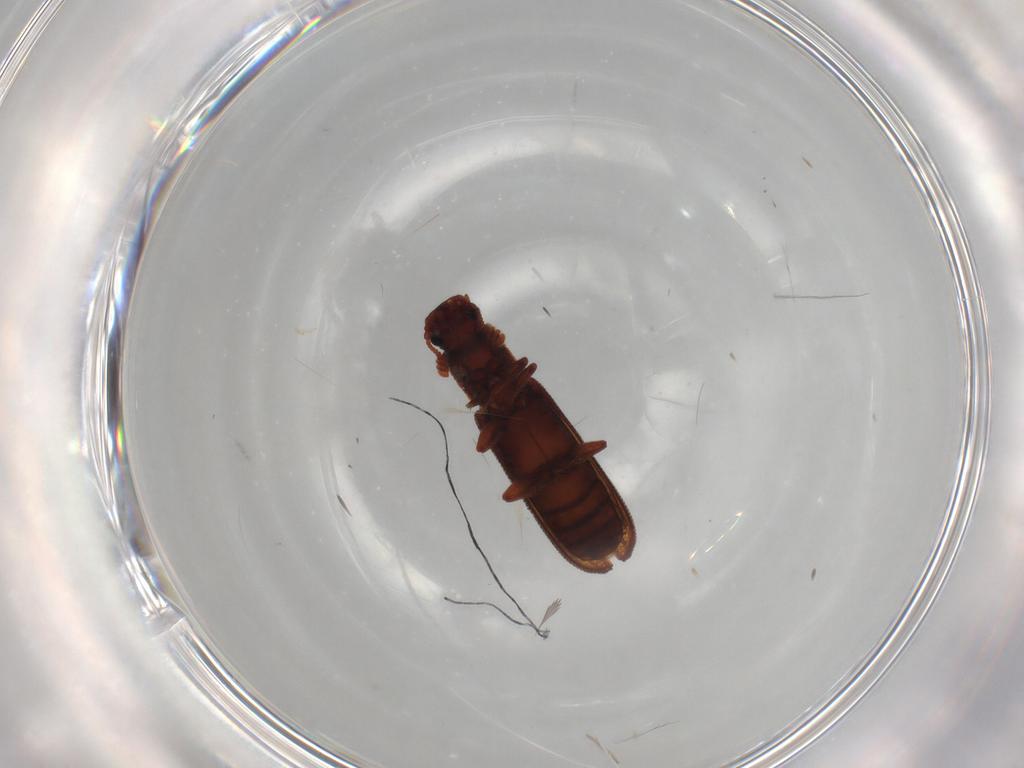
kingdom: Animalia
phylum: Arthropoda
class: Insecta
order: Coleoptera
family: Zopheridae
